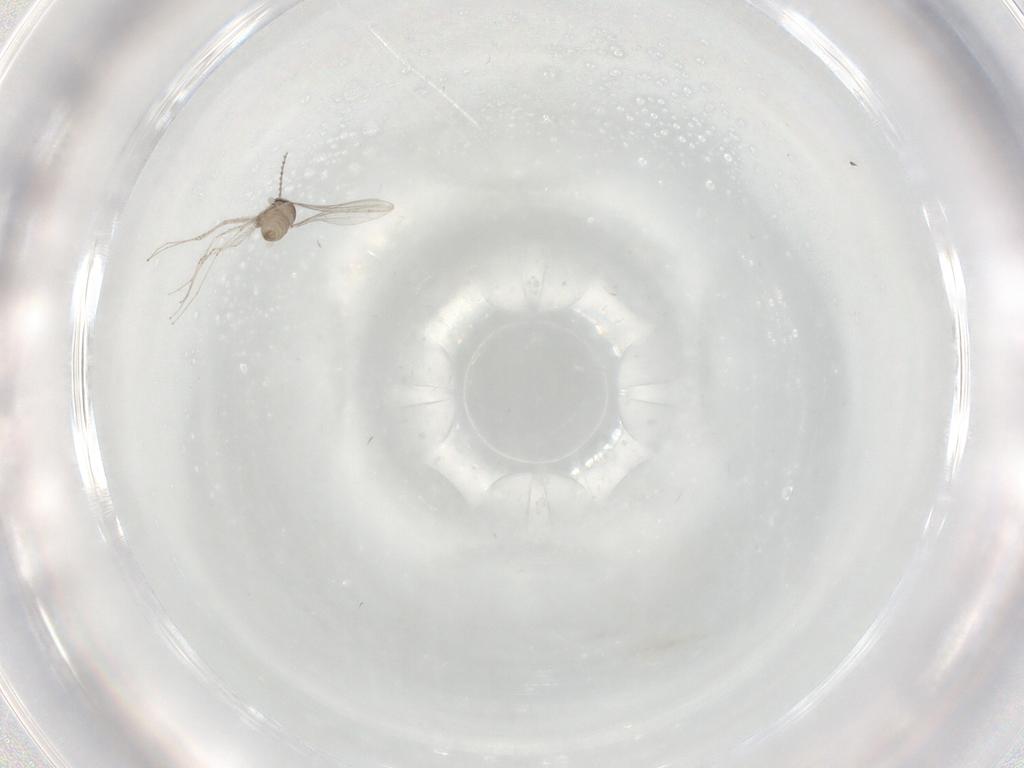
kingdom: Animalia
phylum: Arthropoda
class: Insecta
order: Diptera
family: Cecidomyiidae
